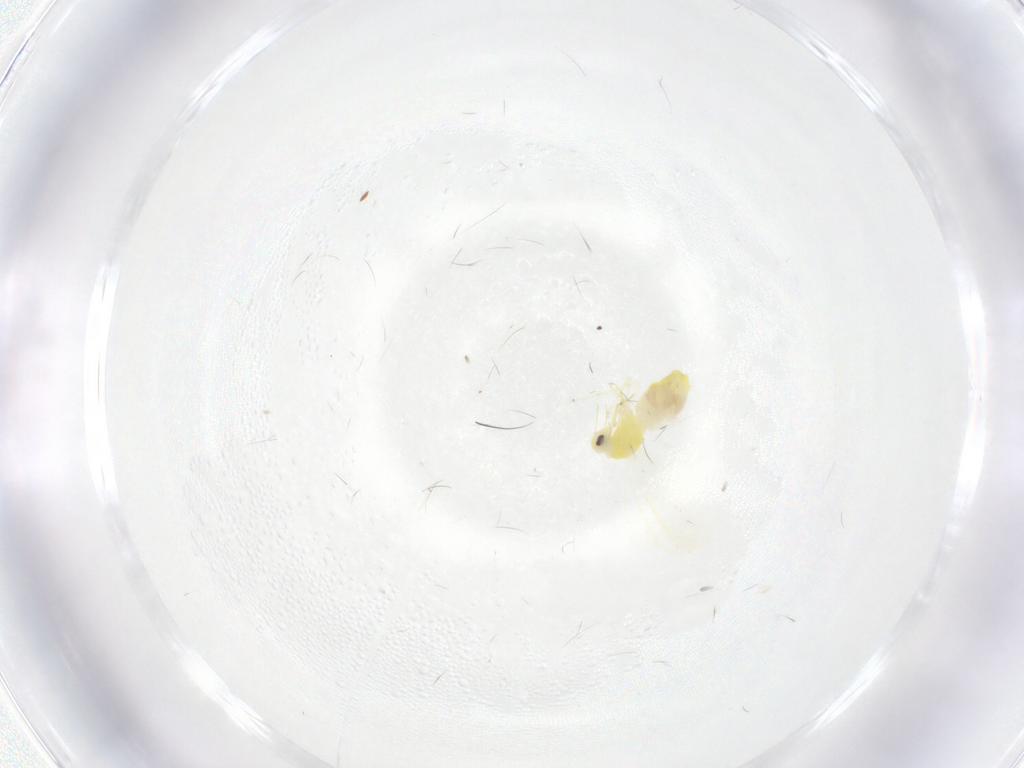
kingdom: Animalia
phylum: Arthropoda
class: Insecta
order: Hemiptera
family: Aleyrodidae
